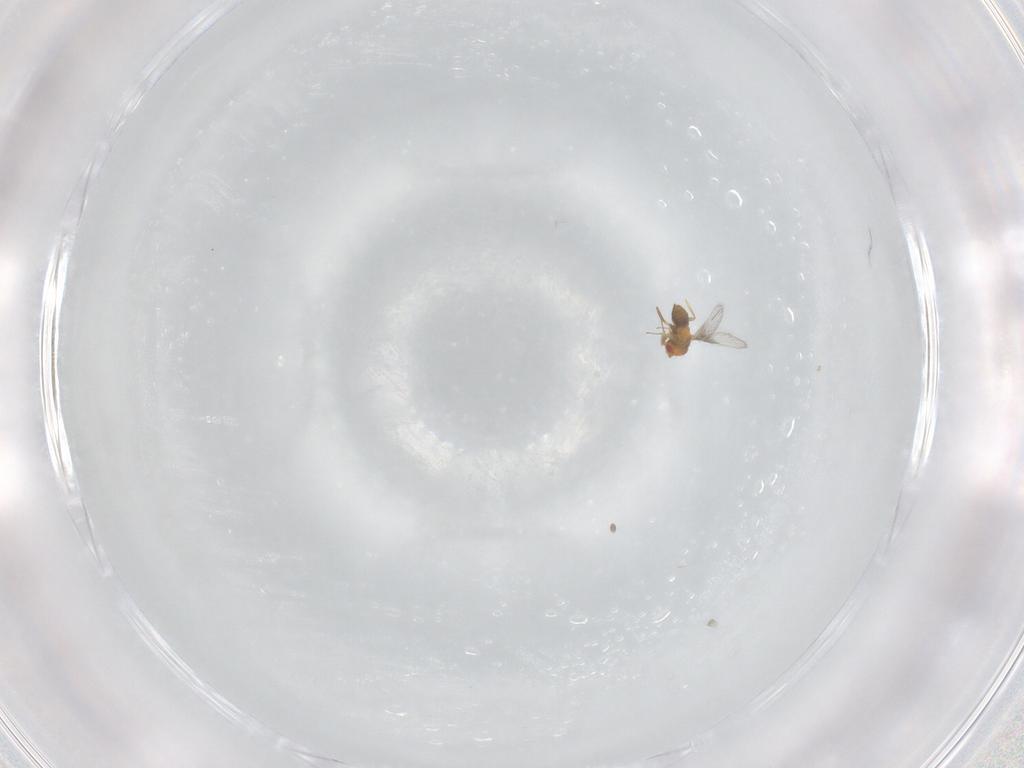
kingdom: Animalia
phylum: Arthropoda
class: Insecta
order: Hymenoptera
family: Trichogrammatidae
